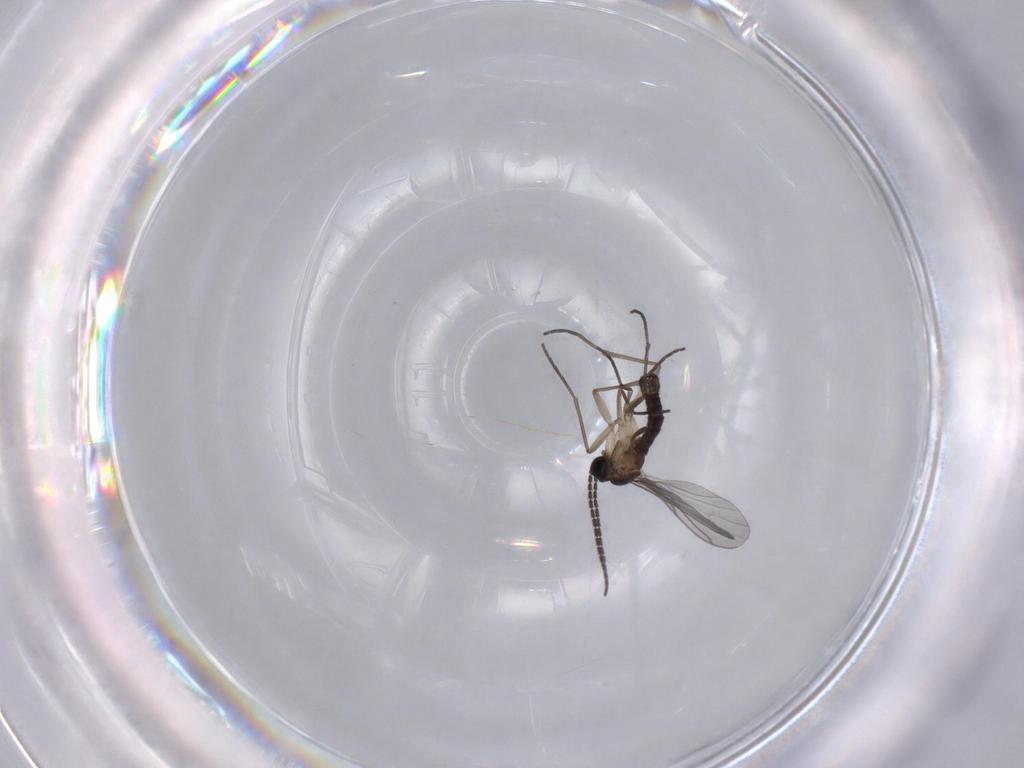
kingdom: Animalia
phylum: Arthropoda
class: Insecta
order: Diptera
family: Sciaridae
